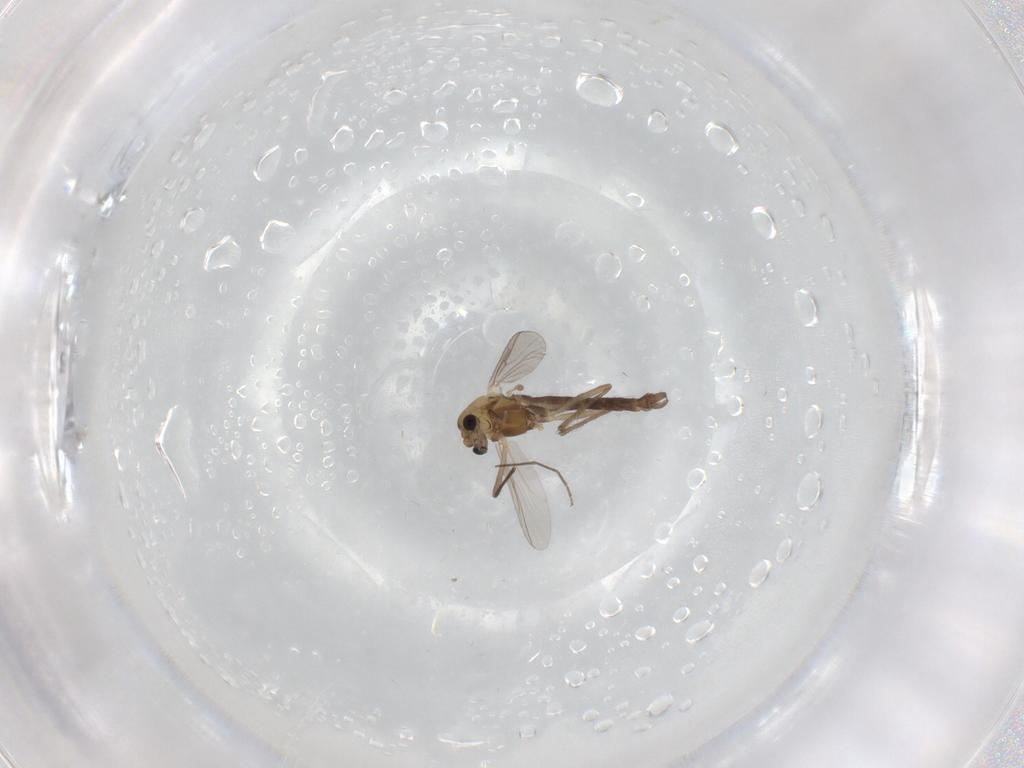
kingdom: Animalia
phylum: Arthropoda
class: Insecta
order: Diptera
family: Chironomidae
